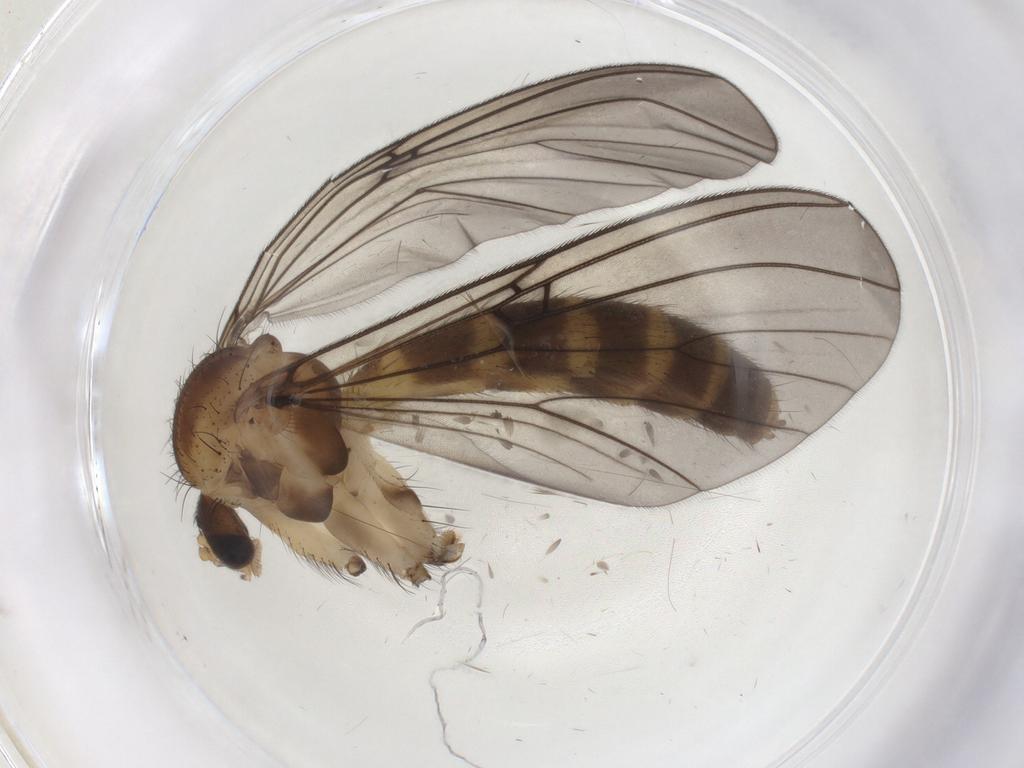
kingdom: Animalia
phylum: Arthropoda
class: Insecta
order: Diptera
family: Mycetophilidae
